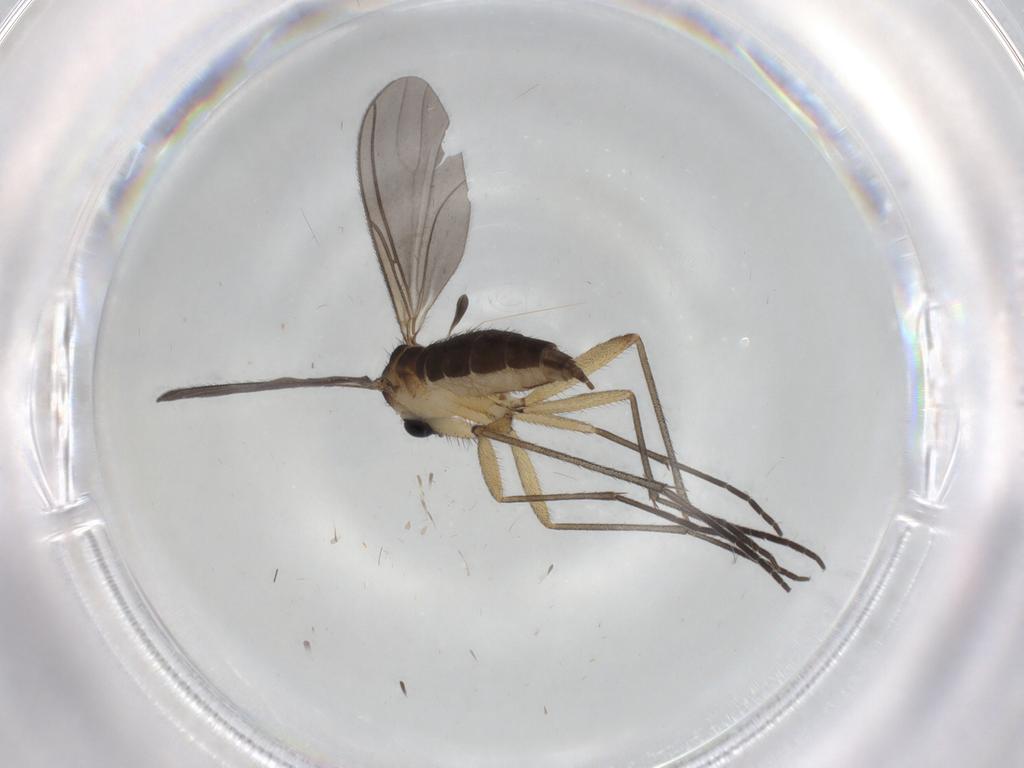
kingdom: Animalia
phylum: Arthropoda
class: Insecta
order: Diptera
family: Sciaridae
